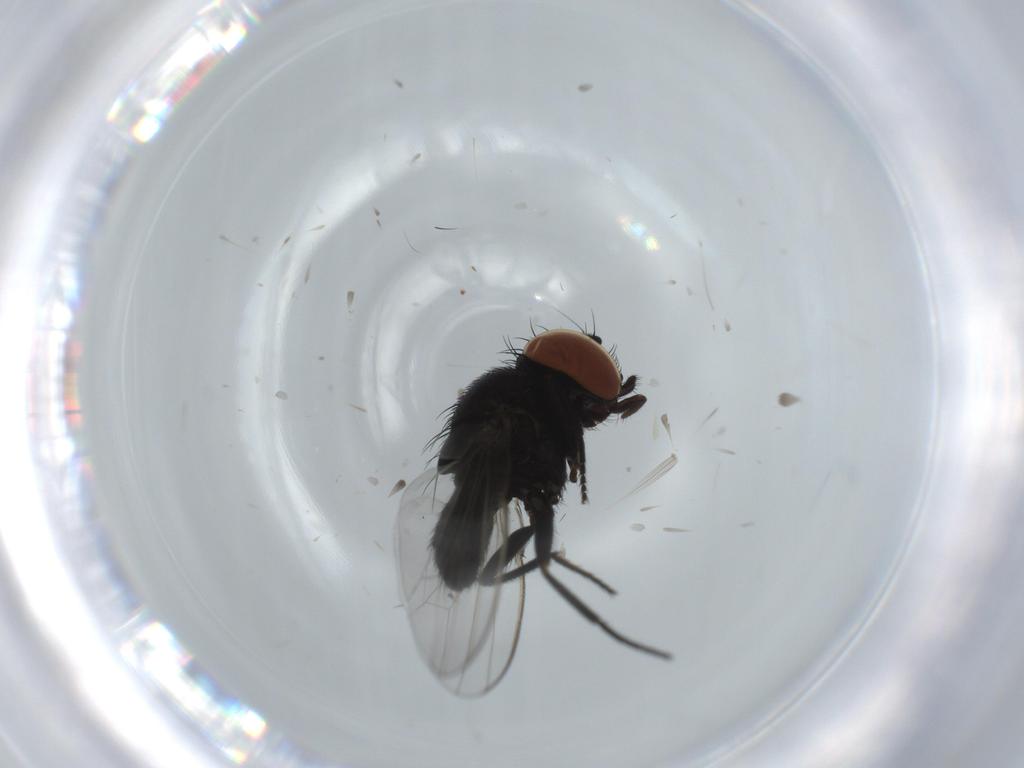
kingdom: Animalia
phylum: Arthropoda
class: Insecta
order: Diptera
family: Milichiidae
